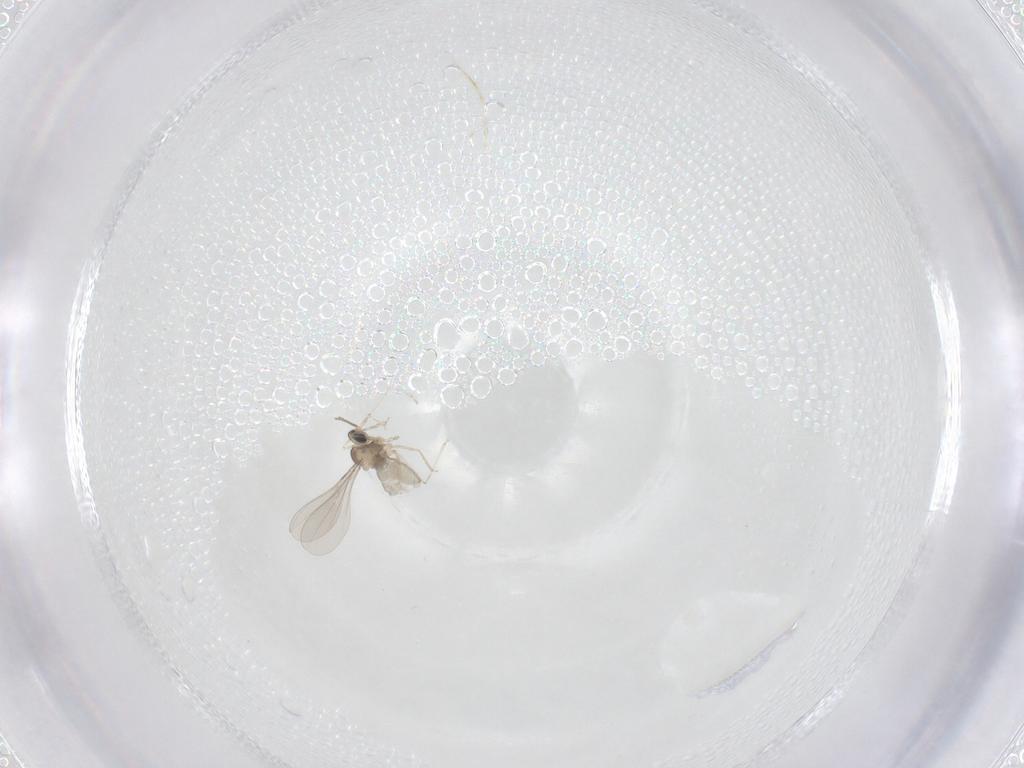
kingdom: Animalia
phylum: Arthropoda
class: Insecta
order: Diptera
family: Cecidomyiidae
